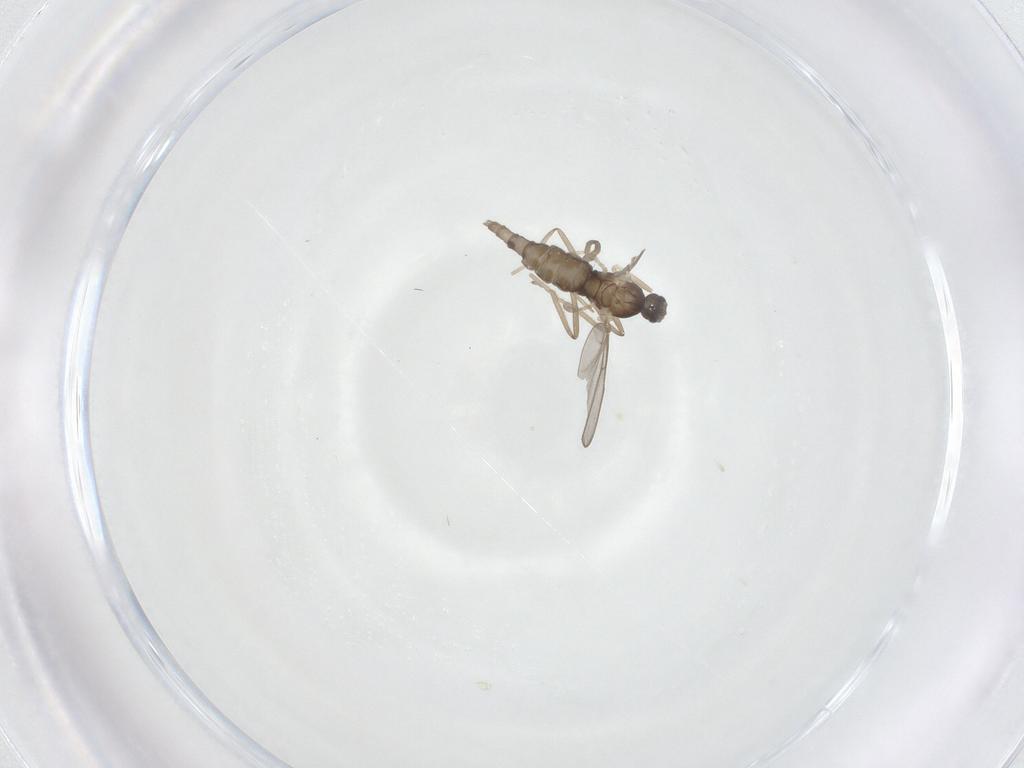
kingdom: Animalia
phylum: Arthropoda
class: Insecta
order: Diptera
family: Cecidomyiidae
